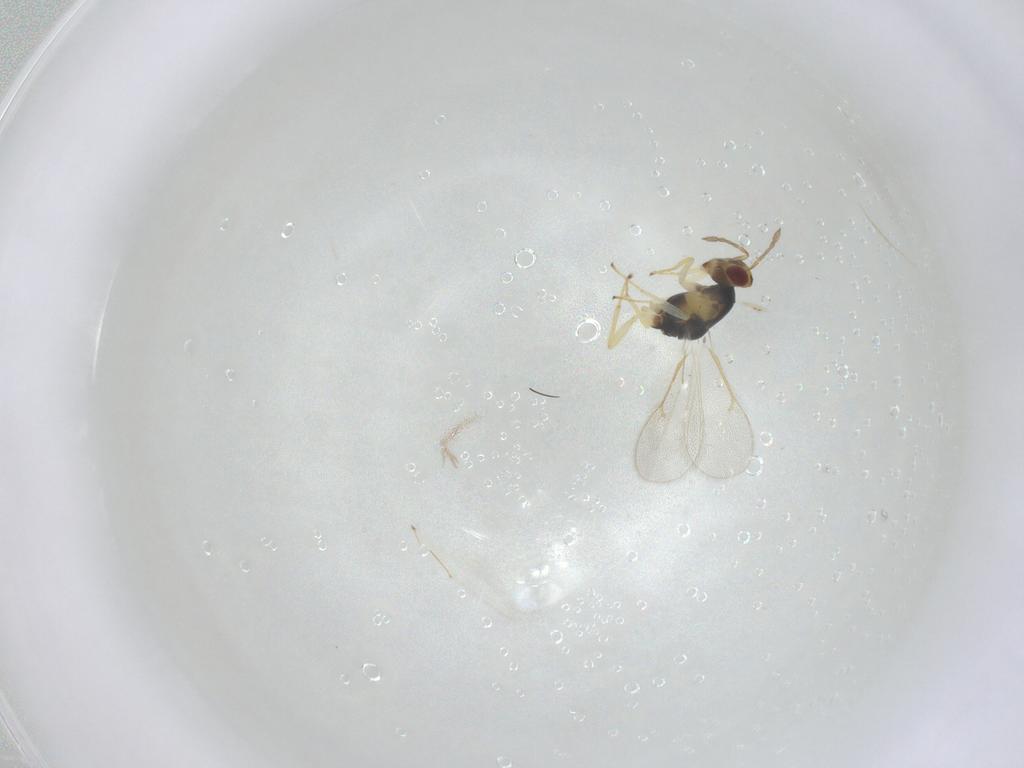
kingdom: Animalia
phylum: Arthropoda
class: Insecta
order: Hymenoptera
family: Eulophidae
